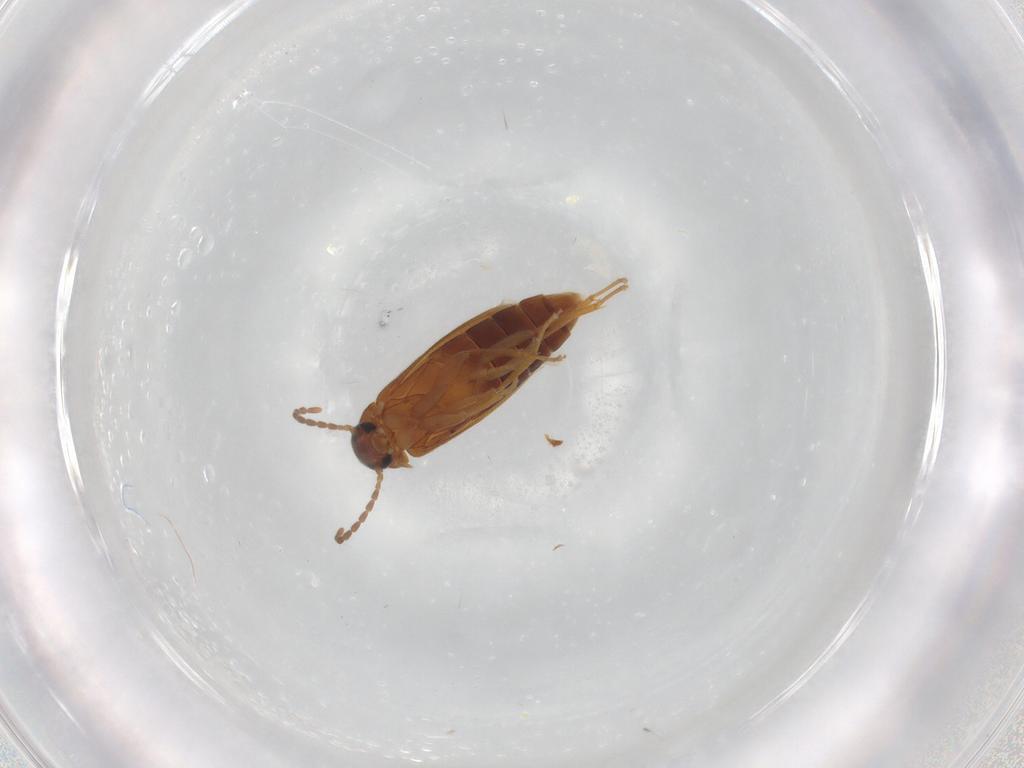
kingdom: Animalia
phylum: Arthropoda
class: Insecta
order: Coleoptera
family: Scraptiidae
